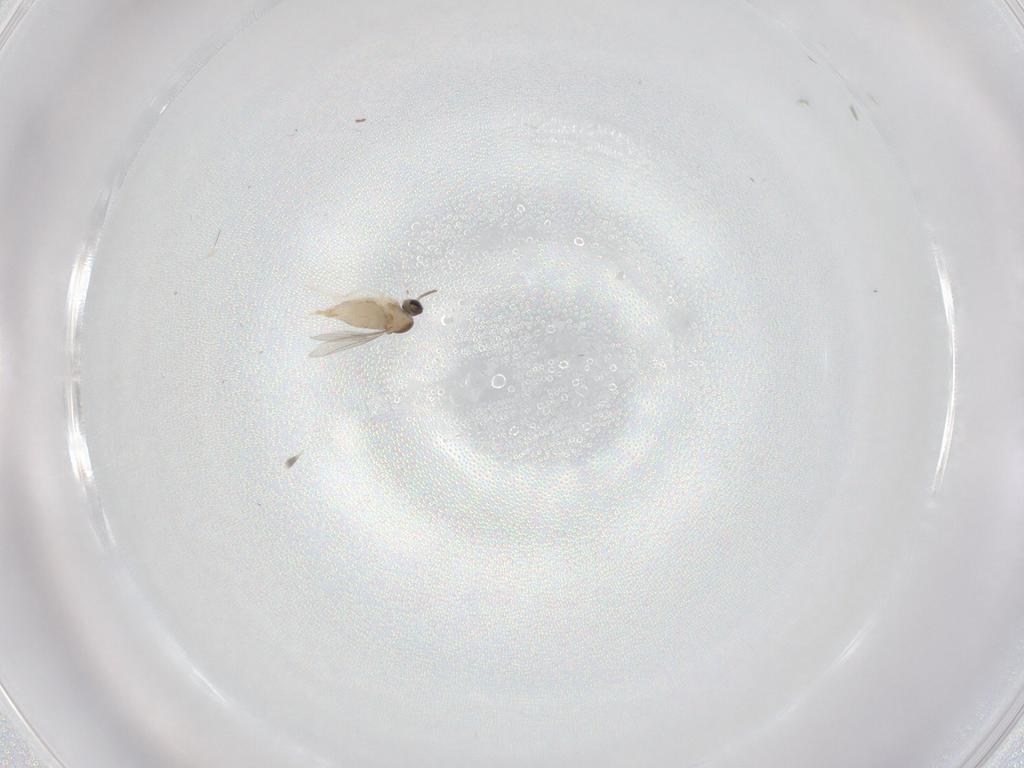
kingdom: Animalia
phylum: Arthropoda
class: Insecta
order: Diptera
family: Cecidomyiidae
